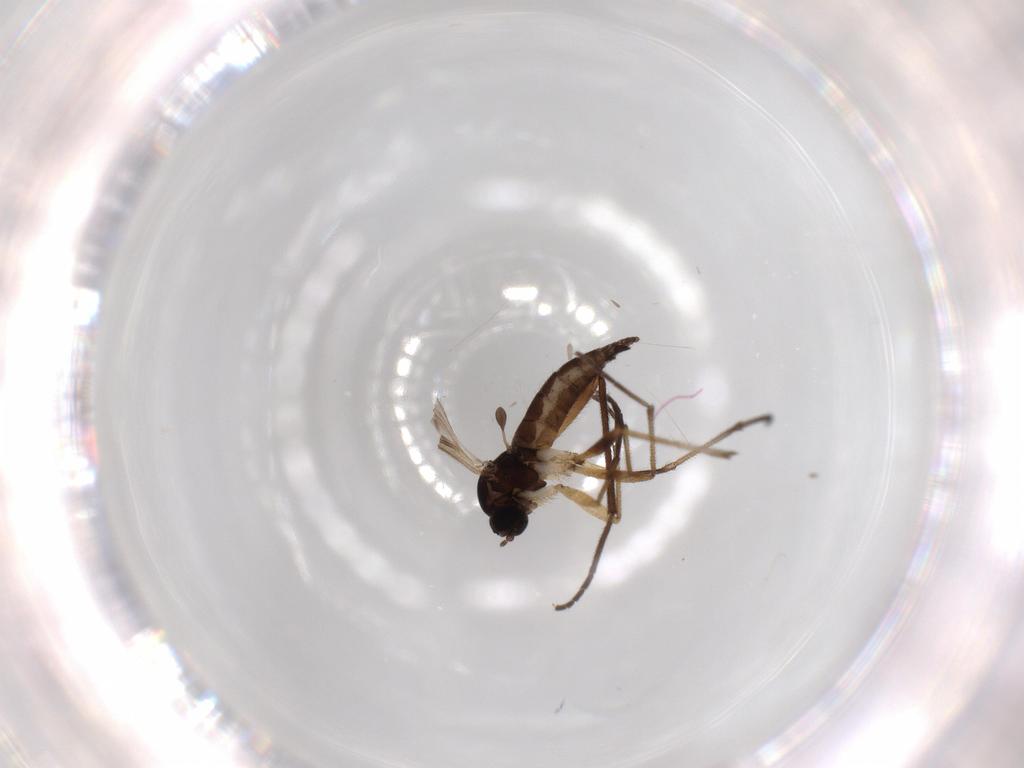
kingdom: Animalia
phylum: Arthropoda
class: Insecta
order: Diptera
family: Sciaridae
